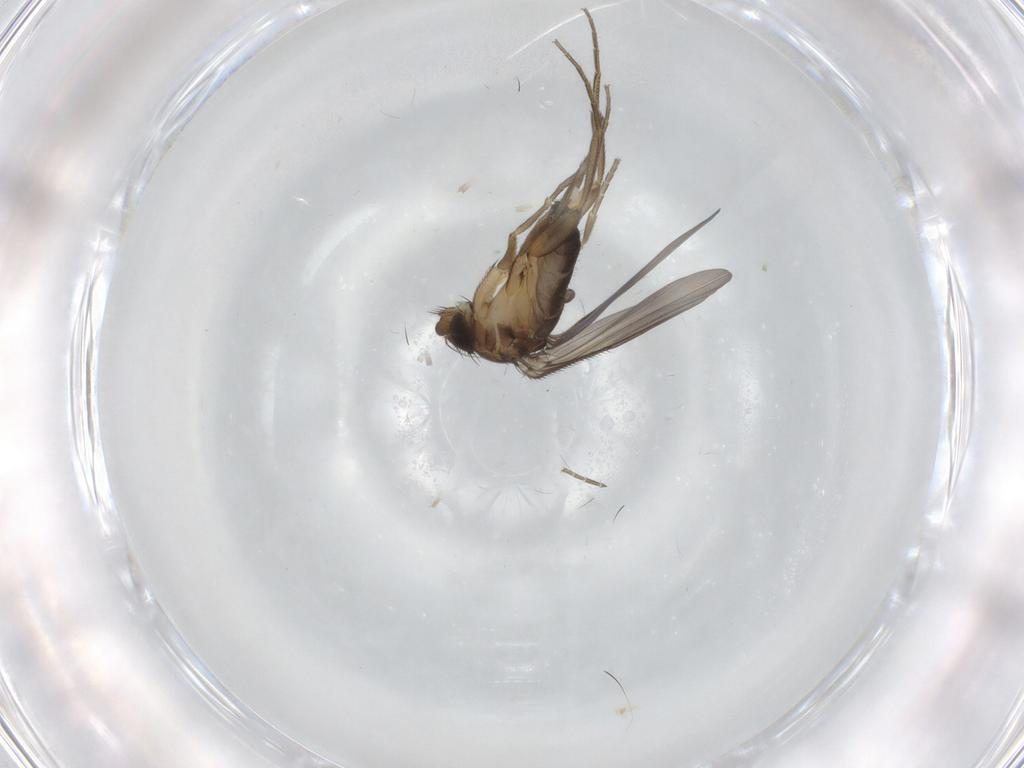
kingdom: Animalia
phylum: Arthropoda
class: Insecta
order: Diptera
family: Phoridae
